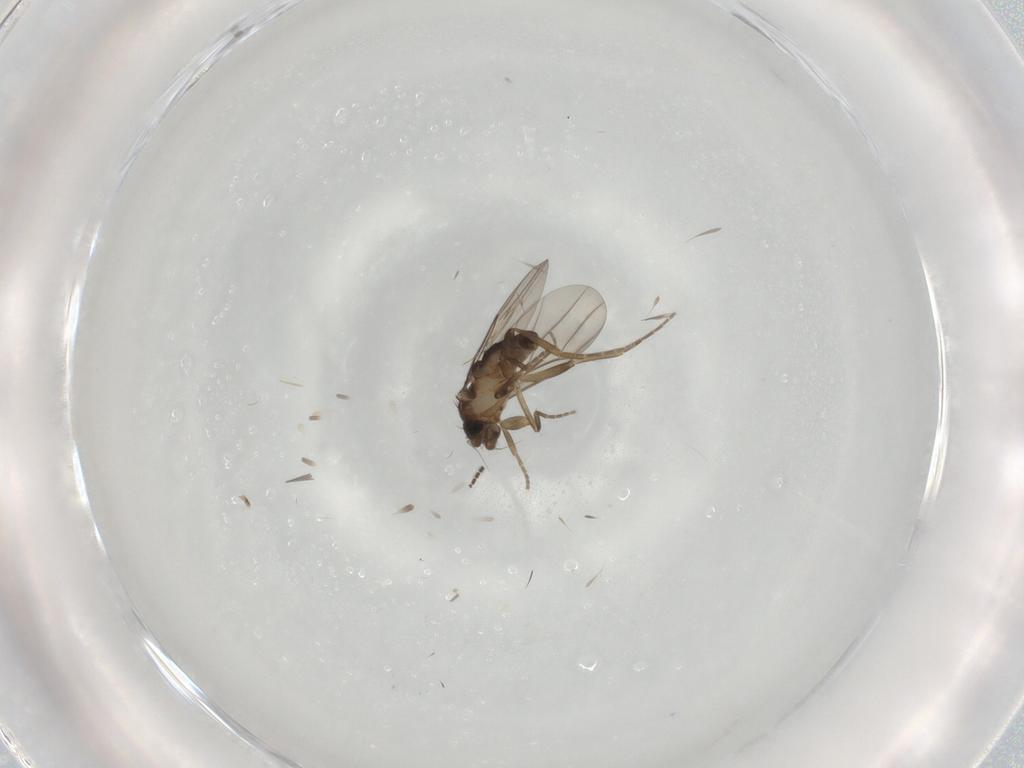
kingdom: Animalia
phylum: Arthropoda
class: Insecta
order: Diptera
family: Sciaridae
